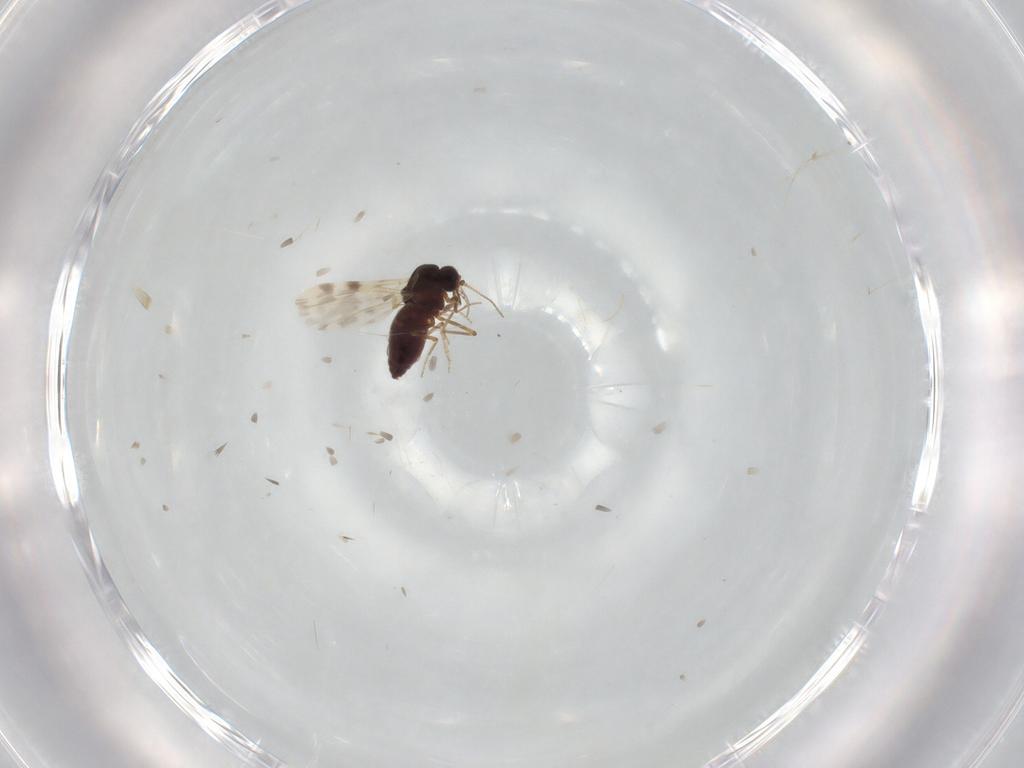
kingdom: Animalia
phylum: Arthropoda
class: Insecta
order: Diptera
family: Ceratopogonidae
